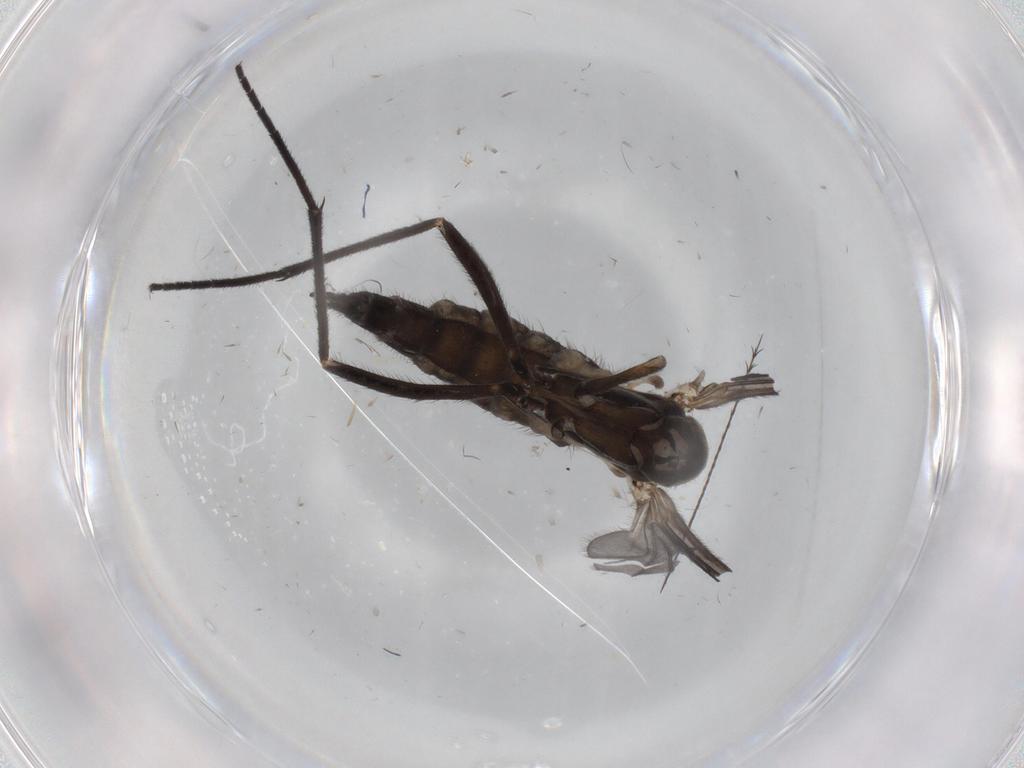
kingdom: Animalia
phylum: Arthropoda
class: Insecta
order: Diptera
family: Sciaridae
